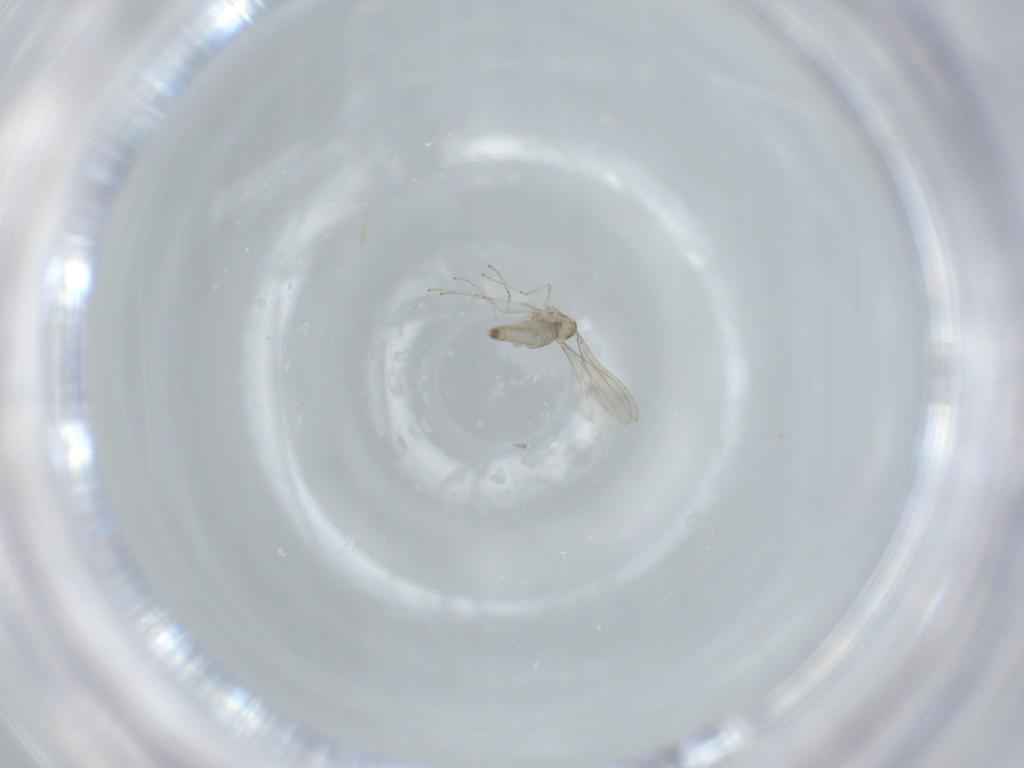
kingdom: Animalia
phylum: Arthropoda
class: Insecta
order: Diptera
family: Cecidomyiidae
